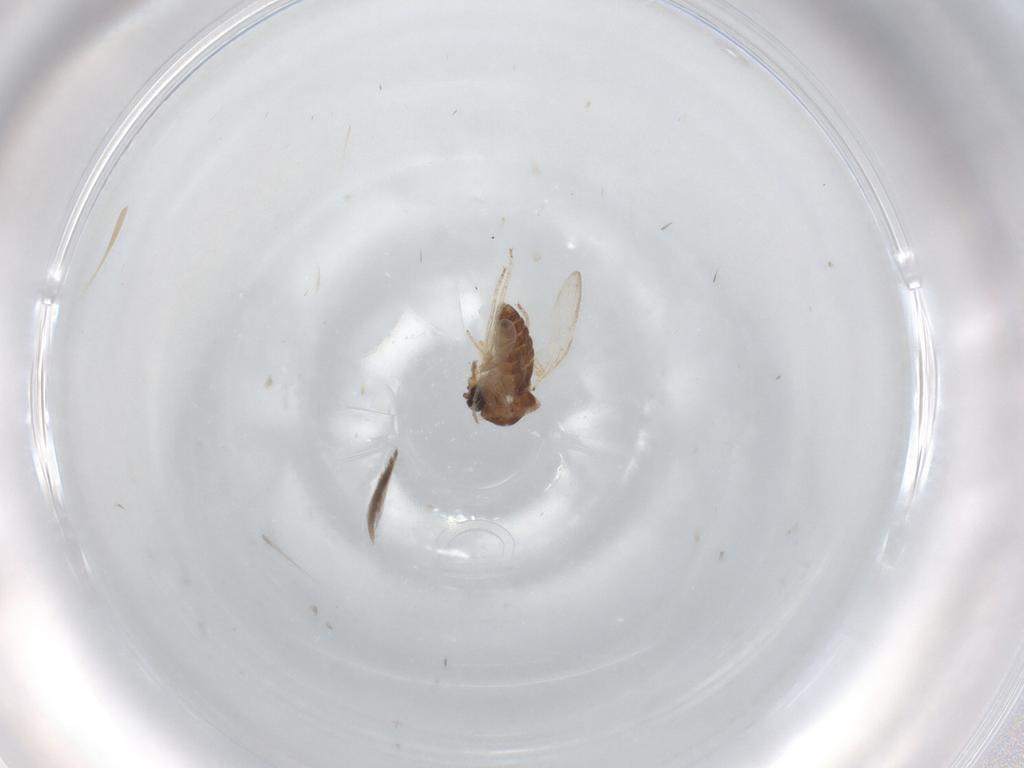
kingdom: Animalia
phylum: Arthropoda
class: Insecta
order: Diptera
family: Ceratopogonidae
